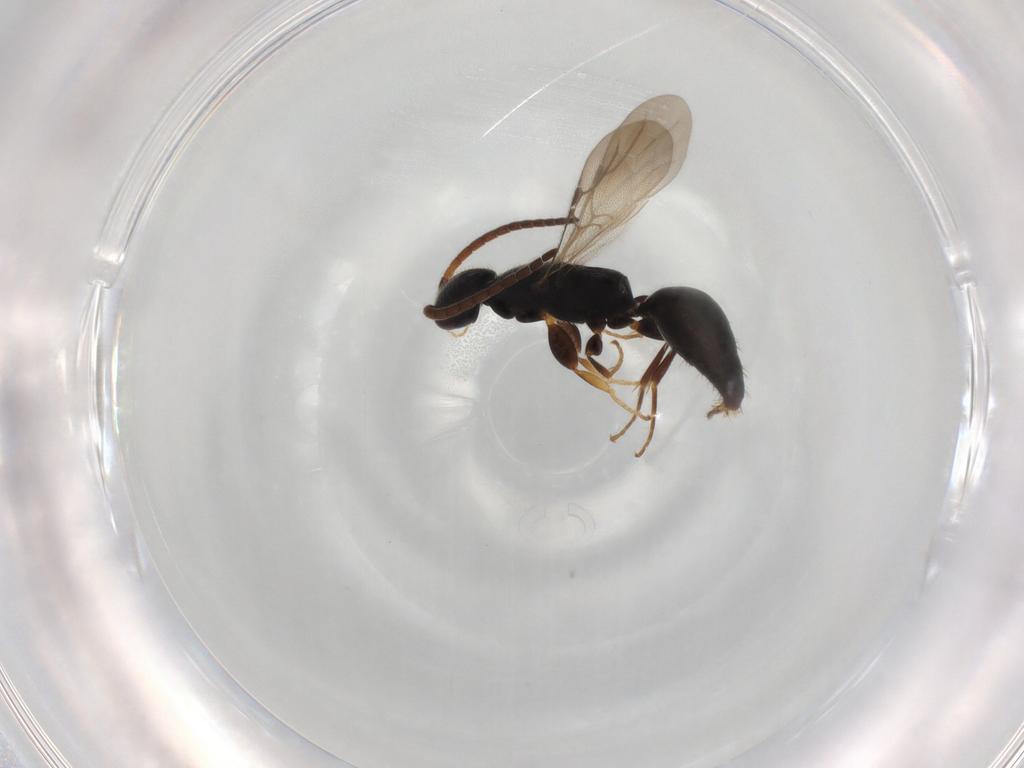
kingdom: Animalia
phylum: Arthropoda
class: Insecta
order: Hymenoptera
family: Bethylidae
